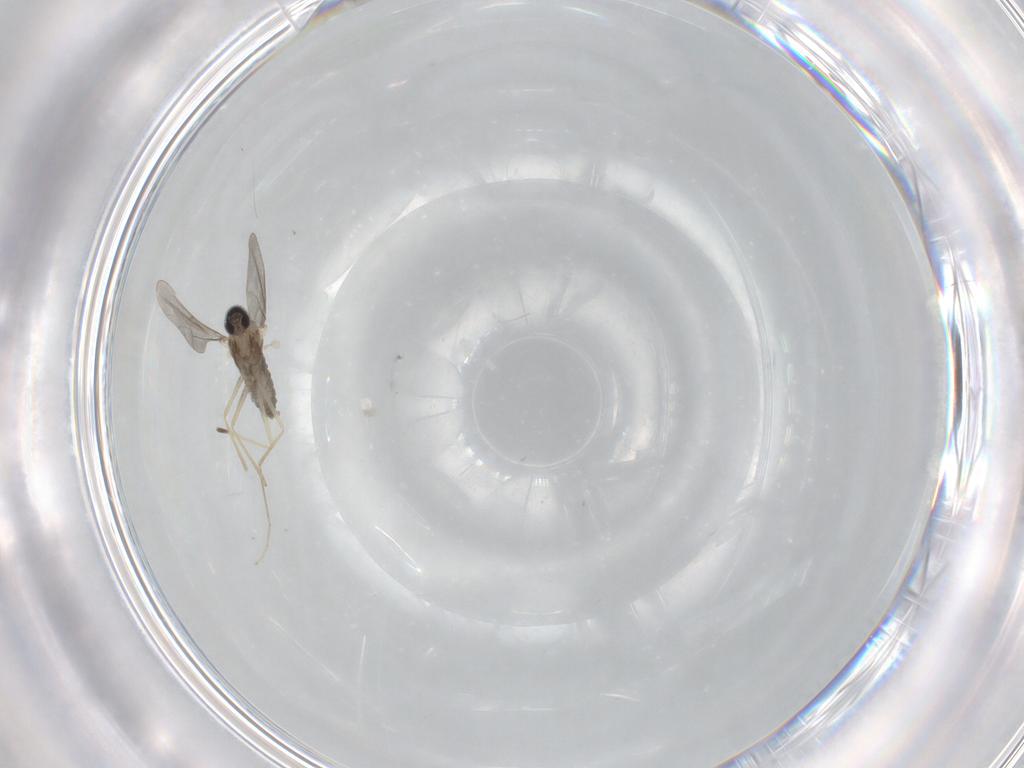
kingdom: Animalia
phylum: Arthropoda
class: Insecta
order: Diptera
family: Cecidomyiidae
